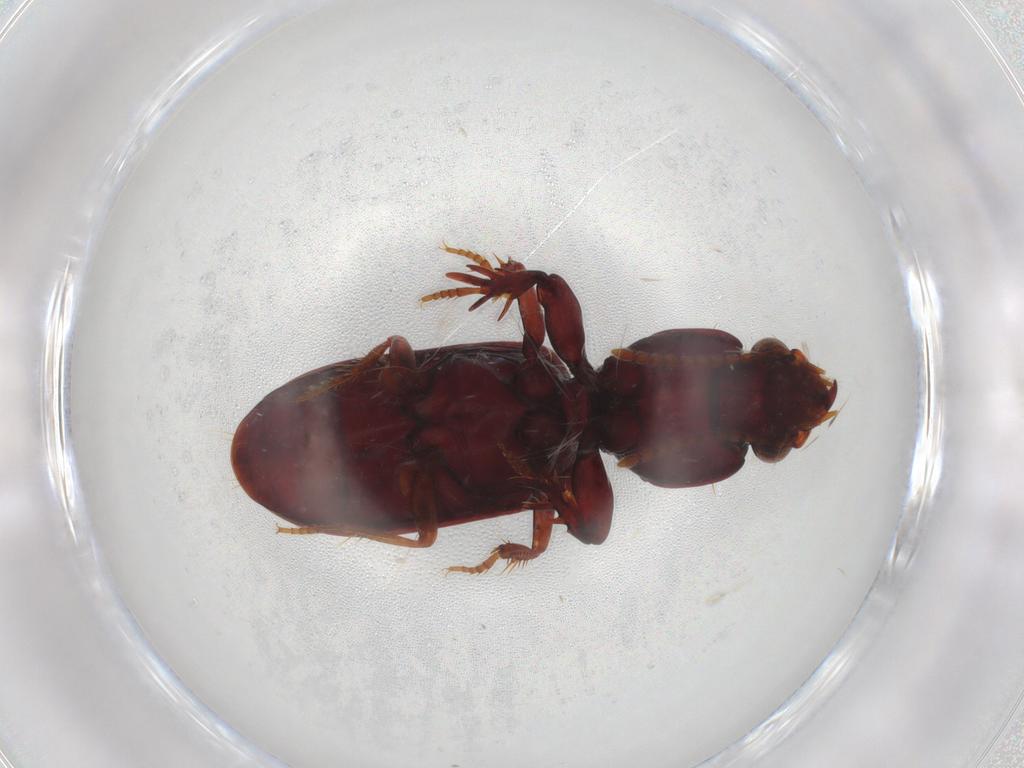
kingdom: Animalia
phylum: Arthropoda
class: Insecta
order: Coleoptera
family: Carabidae
